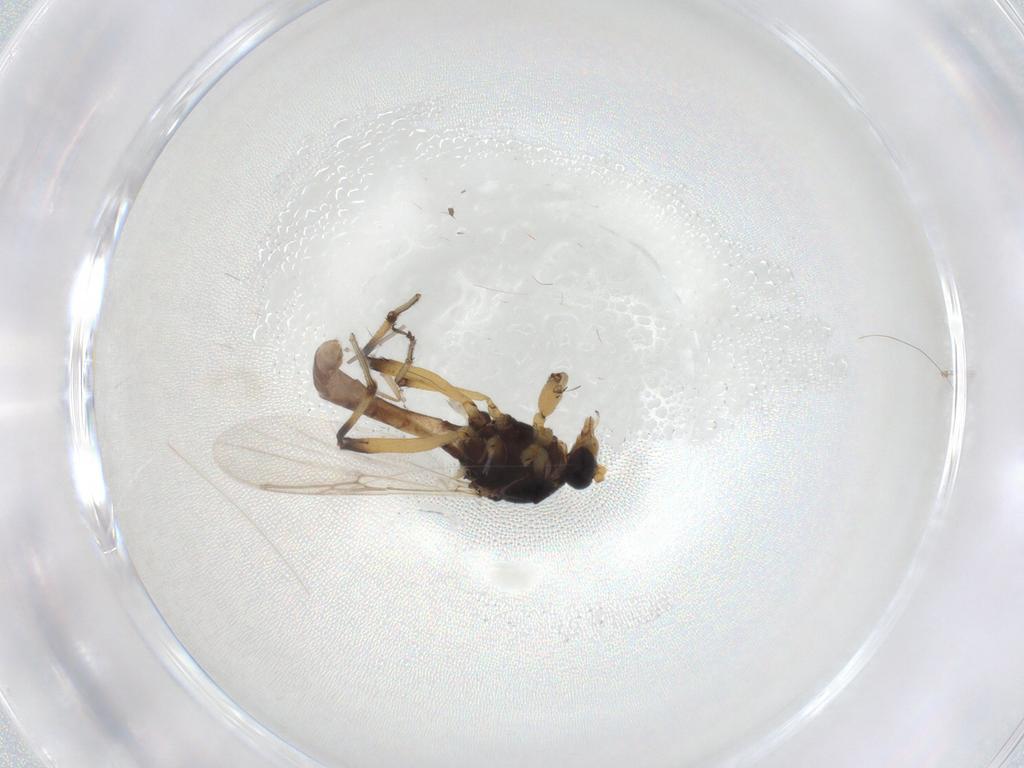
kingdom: Animalia
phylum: Arthropoda
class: Insecta
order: Diptera
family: Ceratopogonidae
